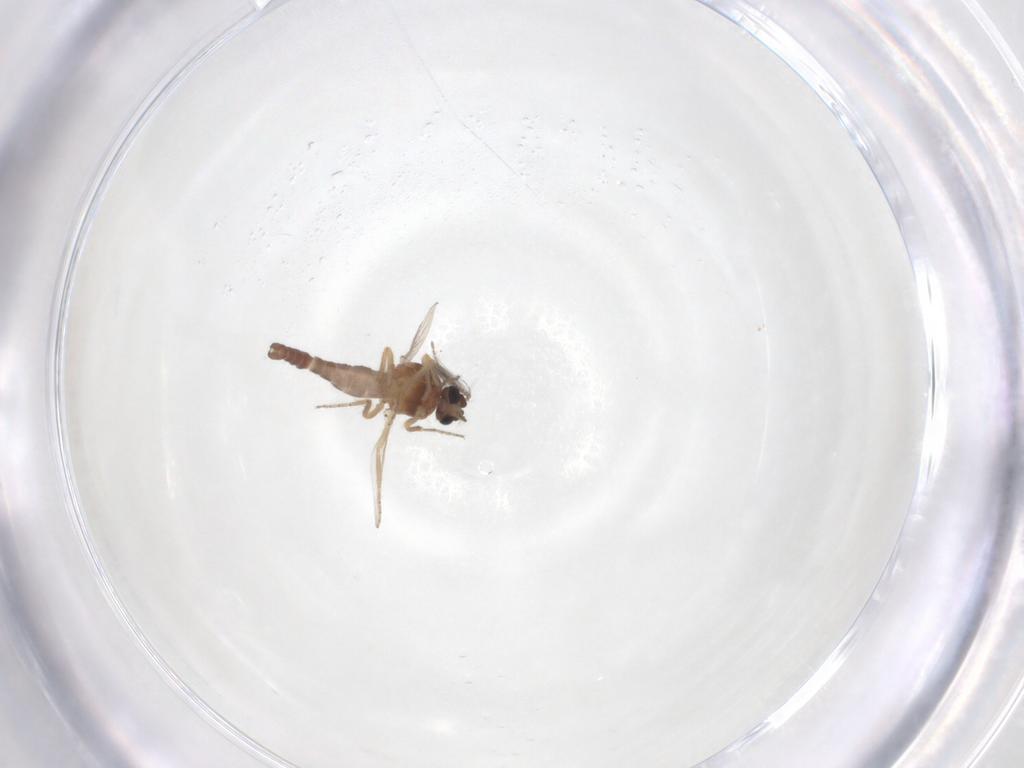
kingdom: Animalia
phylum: Arthropoda
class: Insecta
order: Diptera
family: Ceratopogonidae
